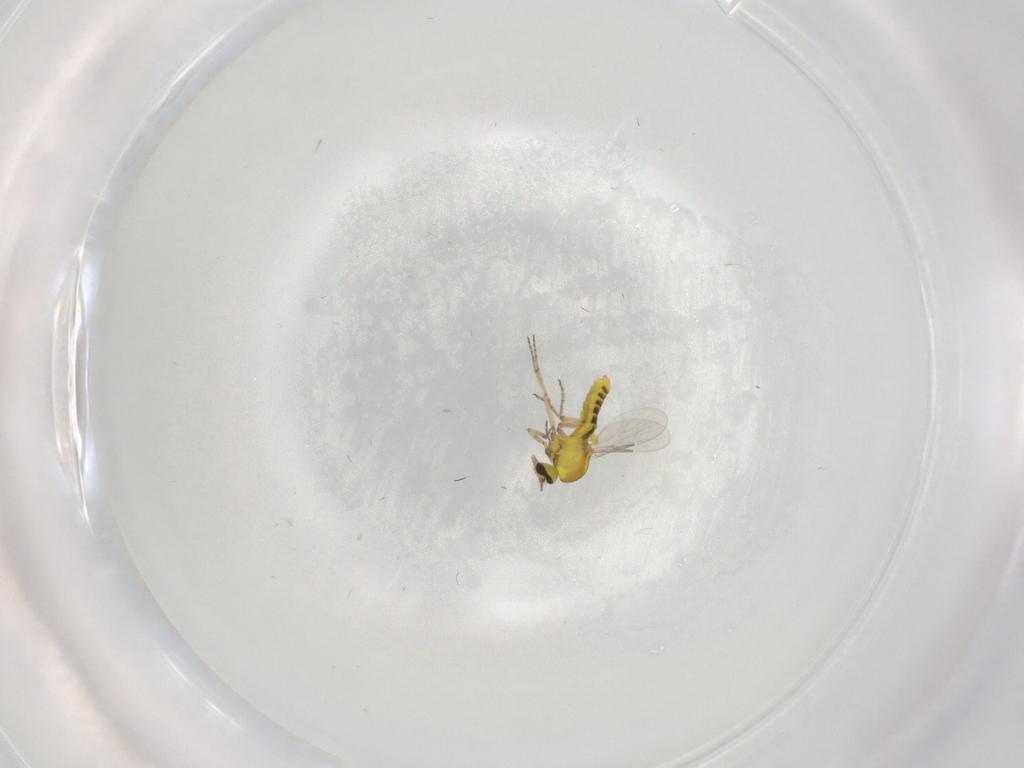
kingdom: Animalia
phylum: Arthropoda
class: Insecta
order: Diptera
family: Ceratopogonidae
